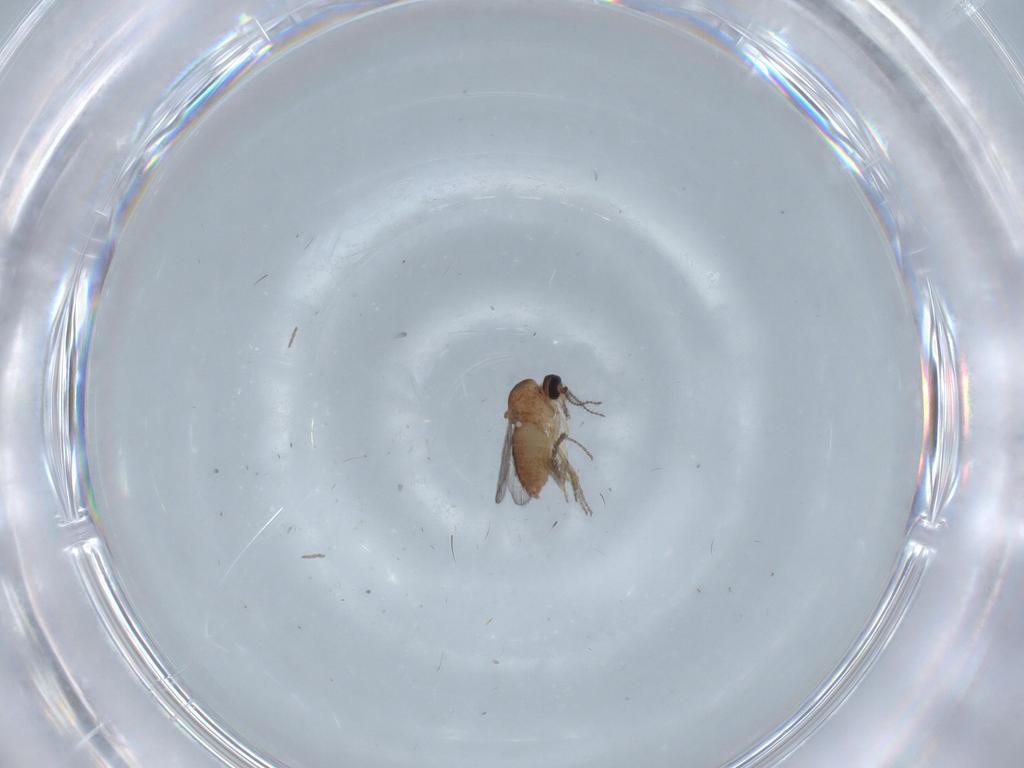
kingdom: Animalia
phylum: Arthropoda
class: Insecta
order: Diptera
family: Ceratopogonidae
